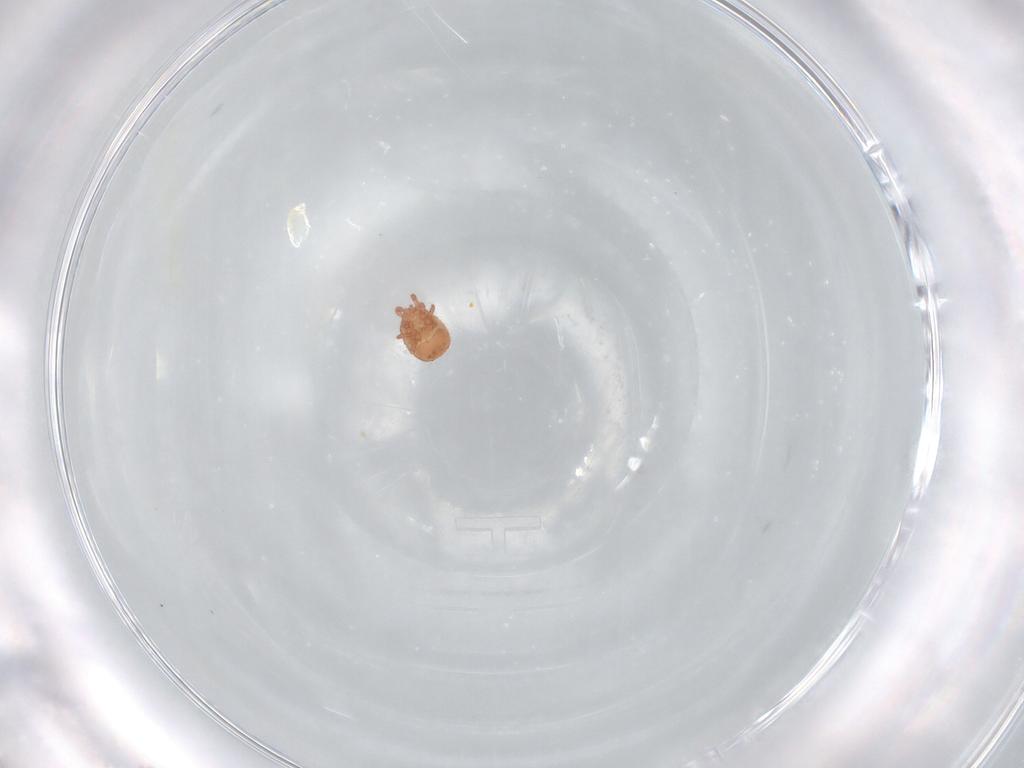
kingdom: Animalia
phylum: Arthropoda
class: Arachnida
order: Mesostigmata
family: Zerconidae
